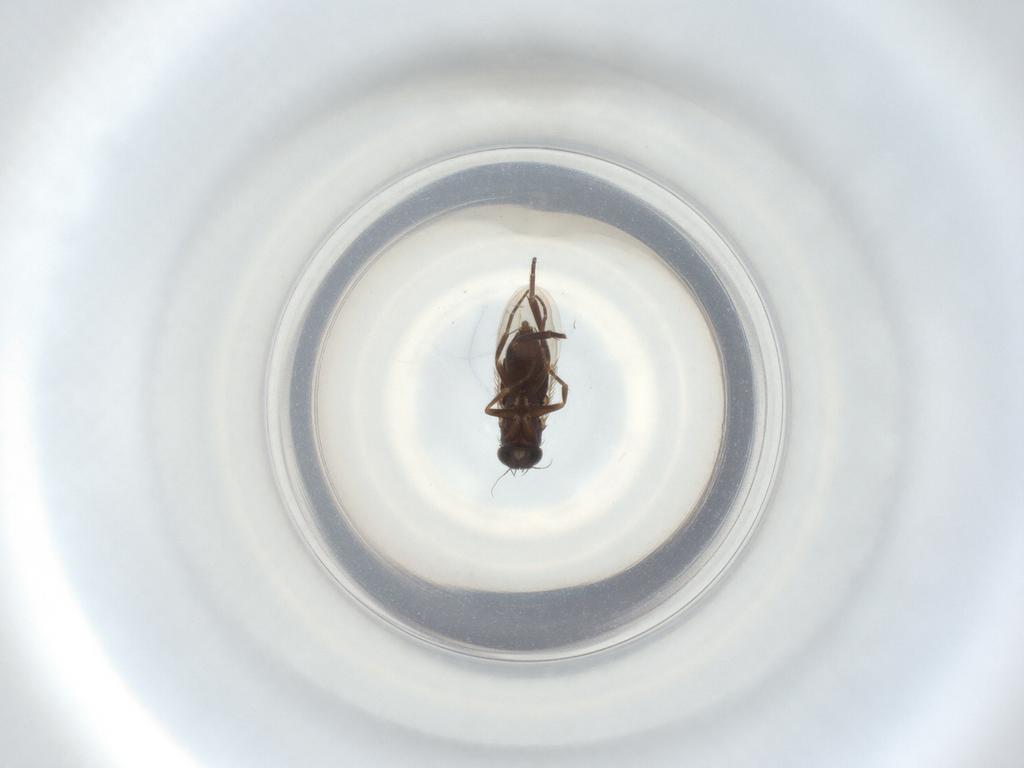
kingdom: Animalia
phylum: Arthropoda
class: Insecta
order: Diptera
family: Phoridae
